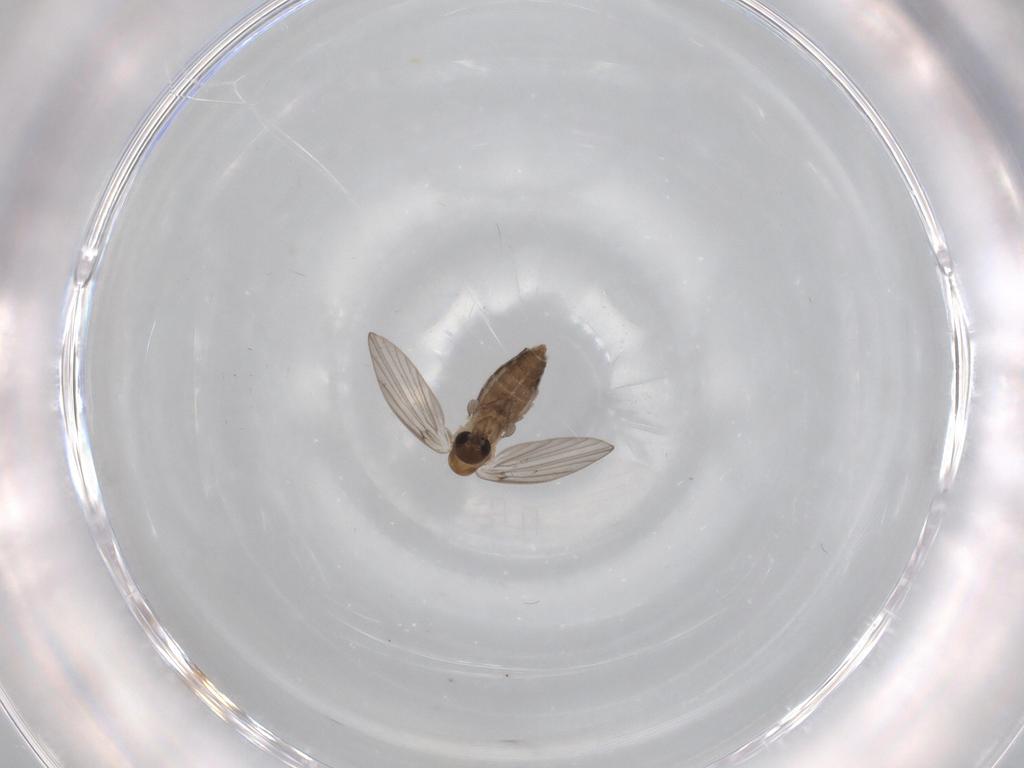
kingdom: Animalia
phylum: Arthropoda
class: Insecta
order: Diptera
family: Psychodidae
